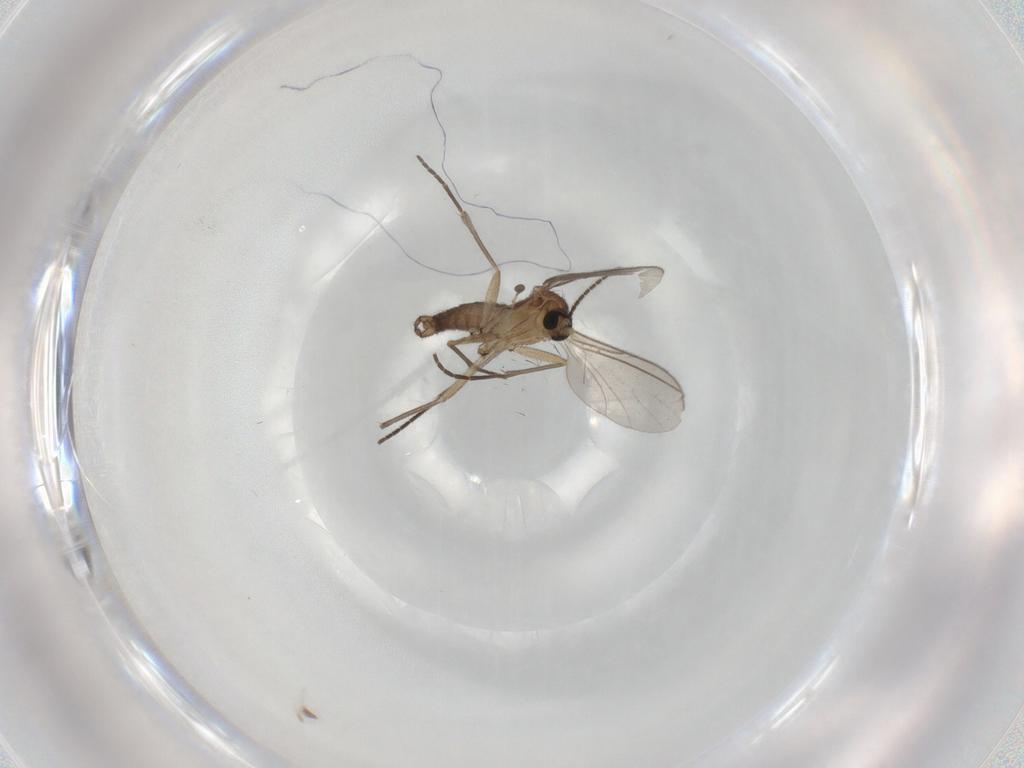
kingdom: Animalia
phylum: Arthropoda
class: Insecta
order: Diptera
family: Sciaridae
